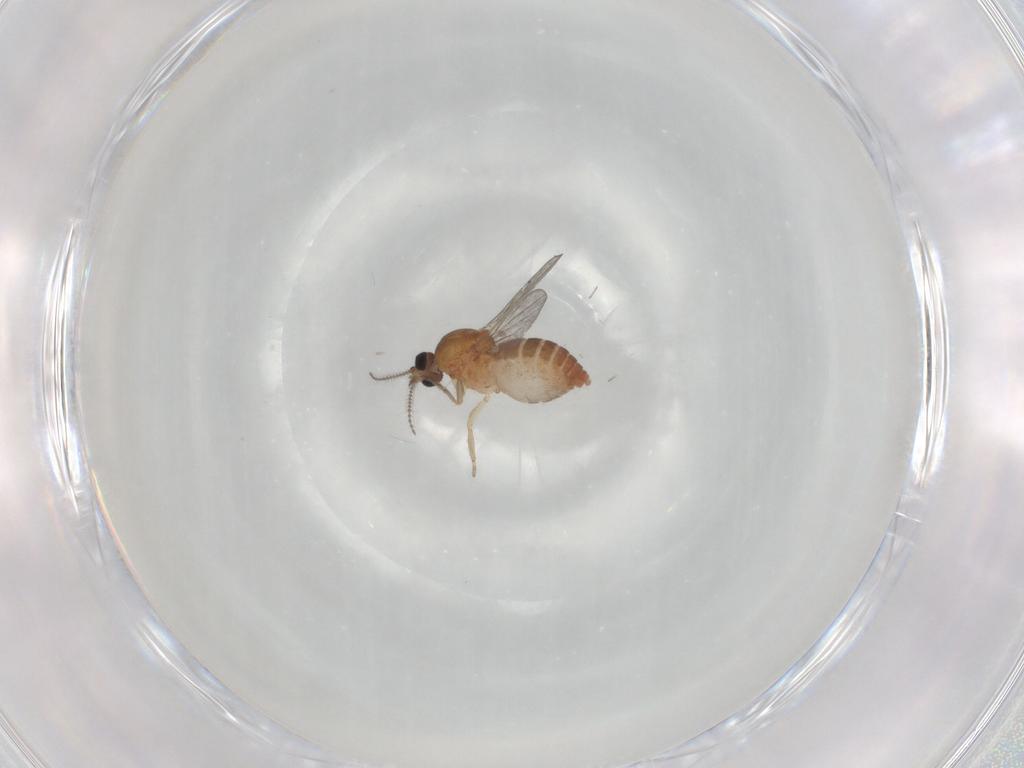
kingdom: Animalia
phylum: Arthropoda
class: Insecta
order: Diptera
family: Ceratopogonidae
